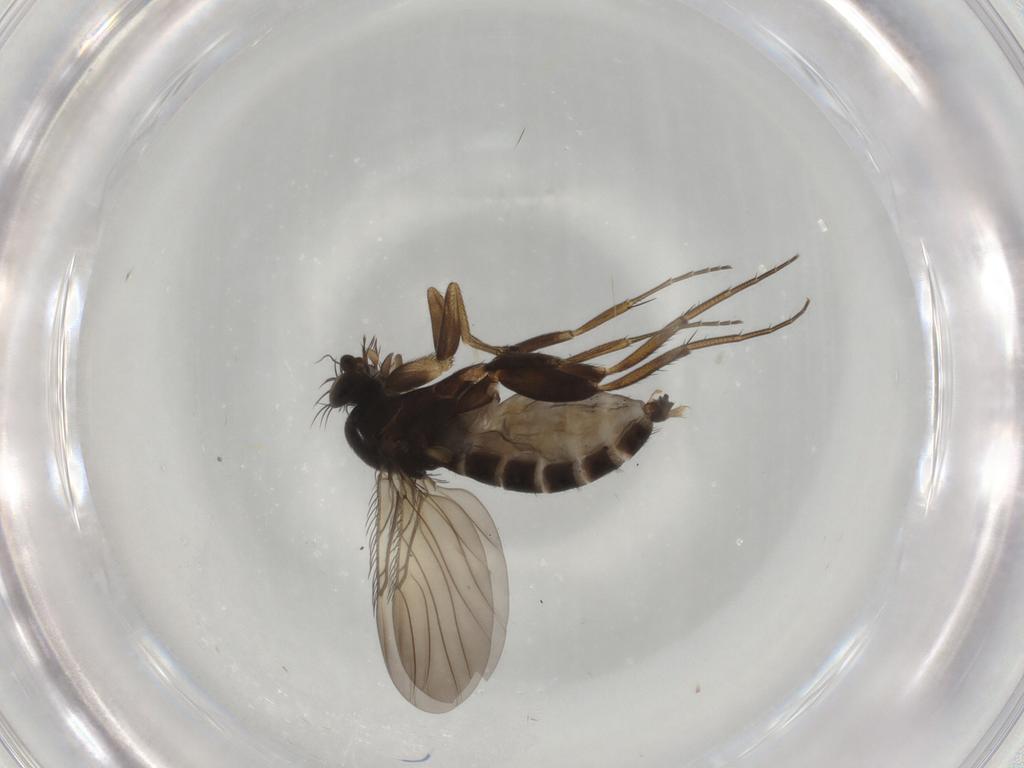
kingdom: Animalia
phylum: Arthropoda
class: Insecta
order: Diptera
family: Phoridae
